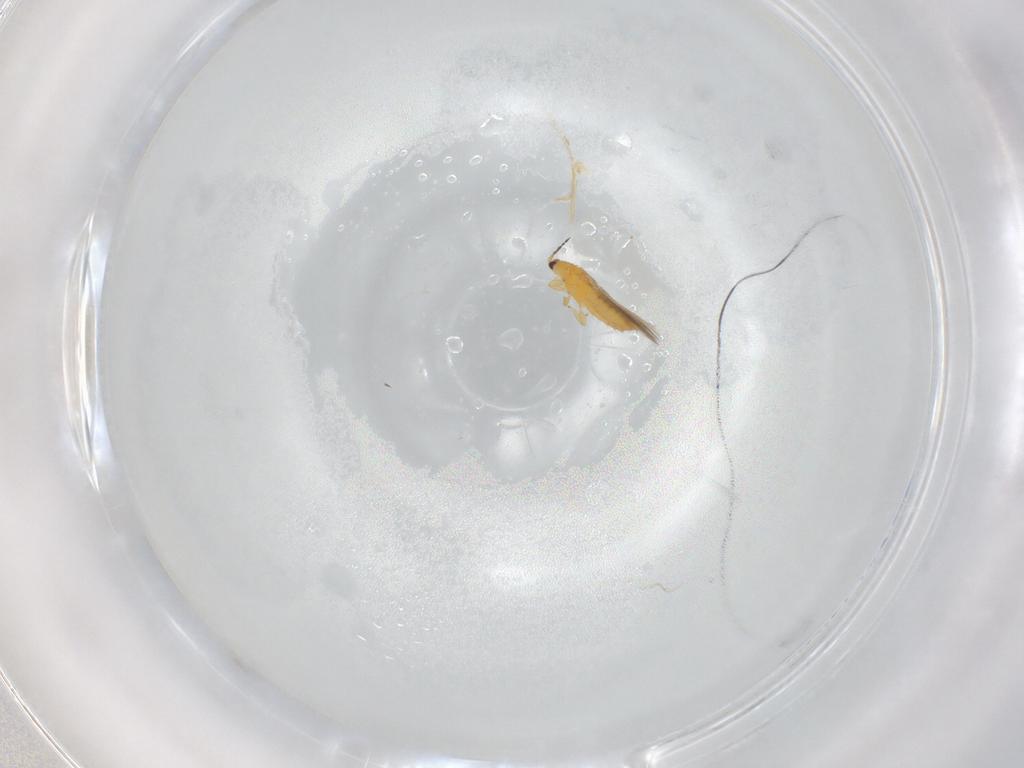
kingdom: Animalia
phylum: Arthropoda
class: Insecta
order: Thysanoptera
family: Thripidae
